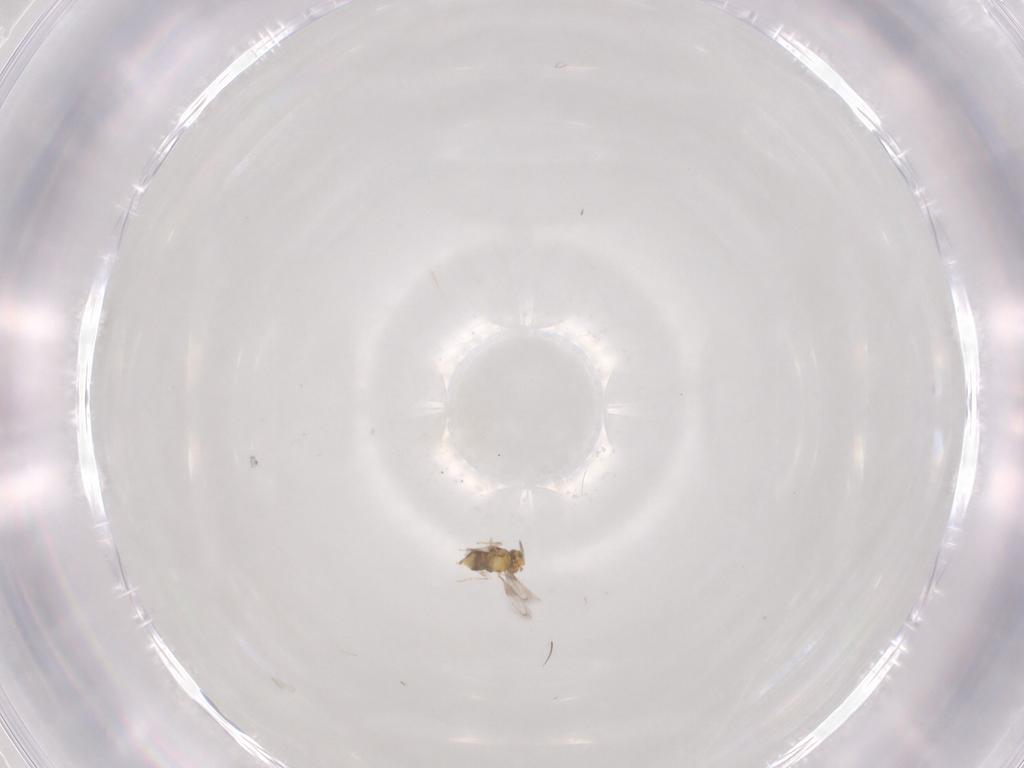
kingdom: Animalia
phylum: Arthropoda
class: Insecta
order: Hymenoptera
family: Aphelinidae
